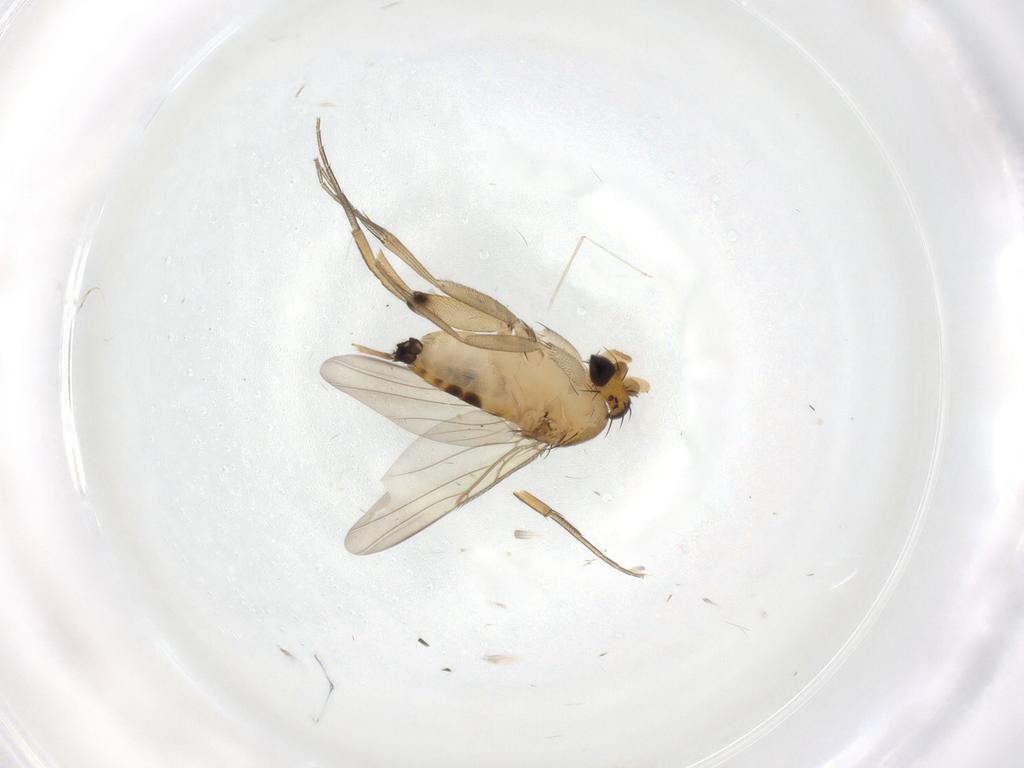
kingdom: Animalia
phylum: Arthropoda
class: Insecta
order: Diptera
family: Phoridae
